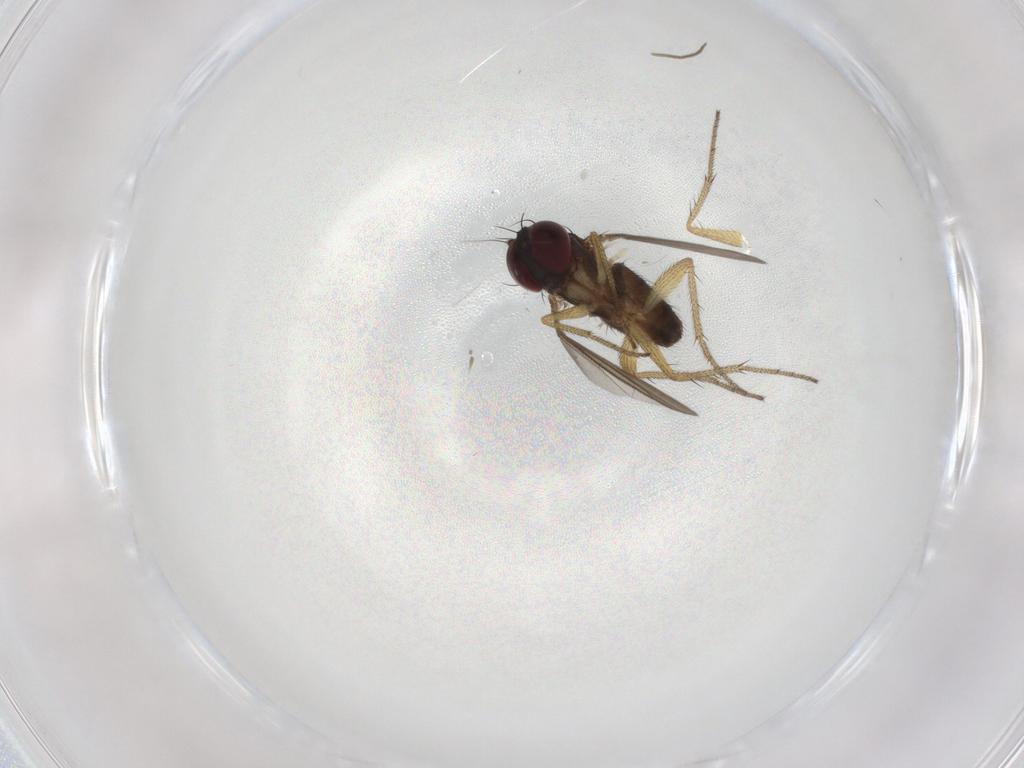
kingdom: Animalia
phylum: Arthropoda
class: Insecta
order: Diptera
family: Dolichopodidae
